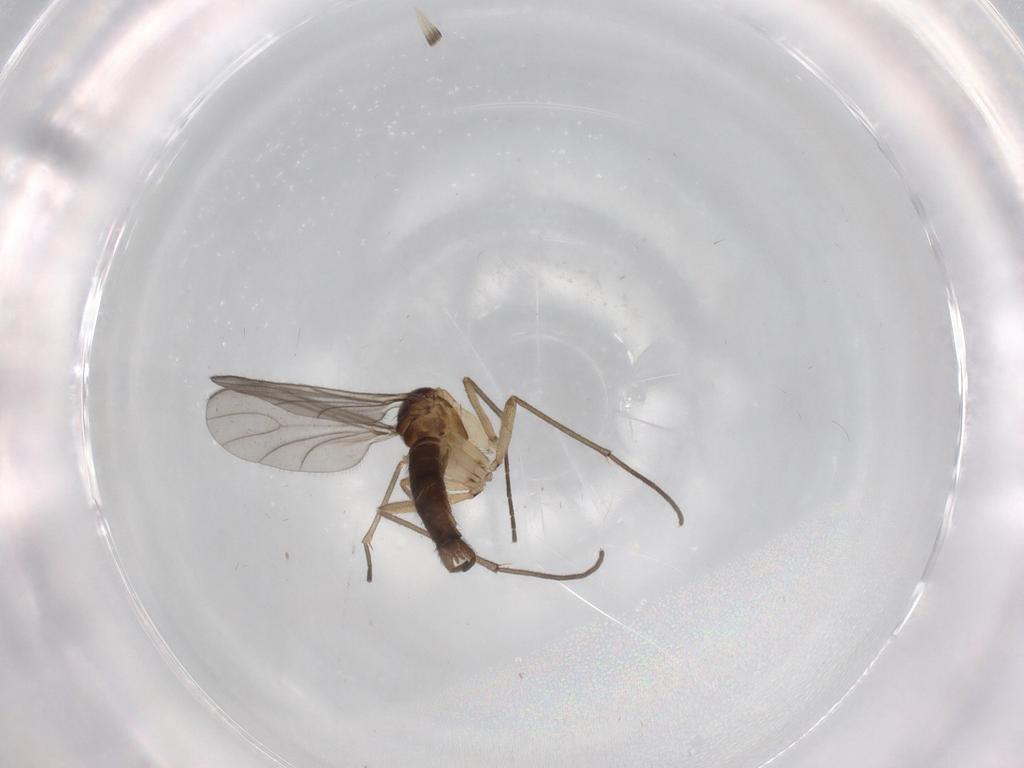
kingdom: Animalia
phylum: Arthropoda
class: Insecta
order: Diptera
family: Sciaridae
